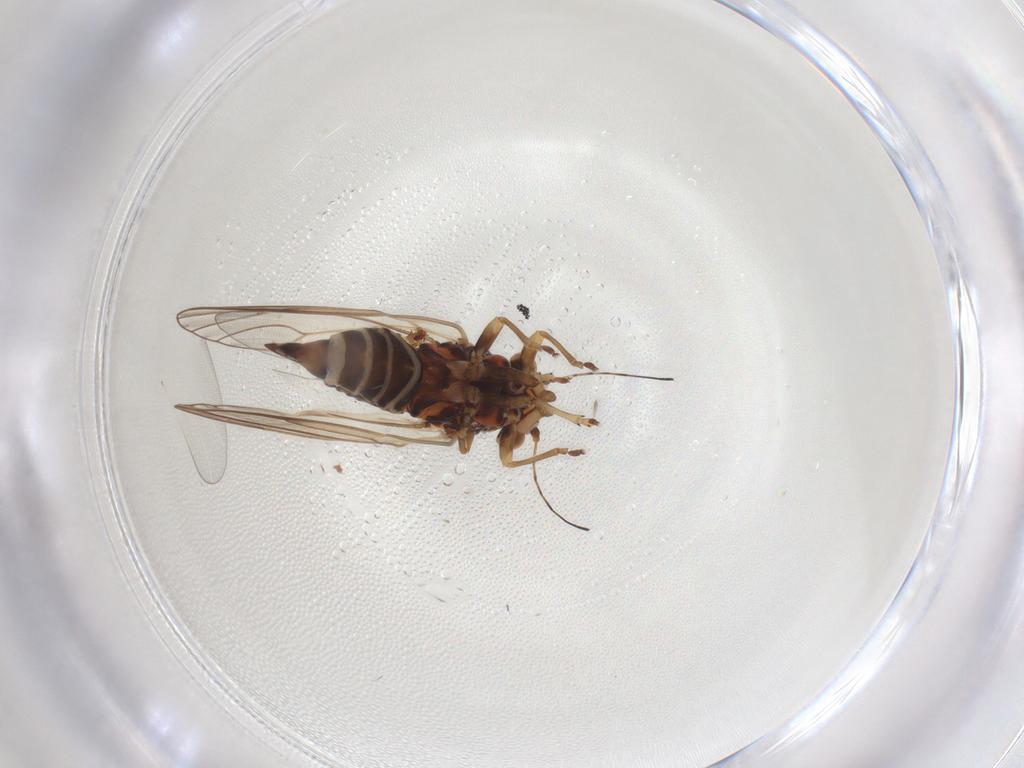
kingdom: Animalia
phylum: Arthropoda
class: Insecta
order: Hemiptera
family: Psyllidae
